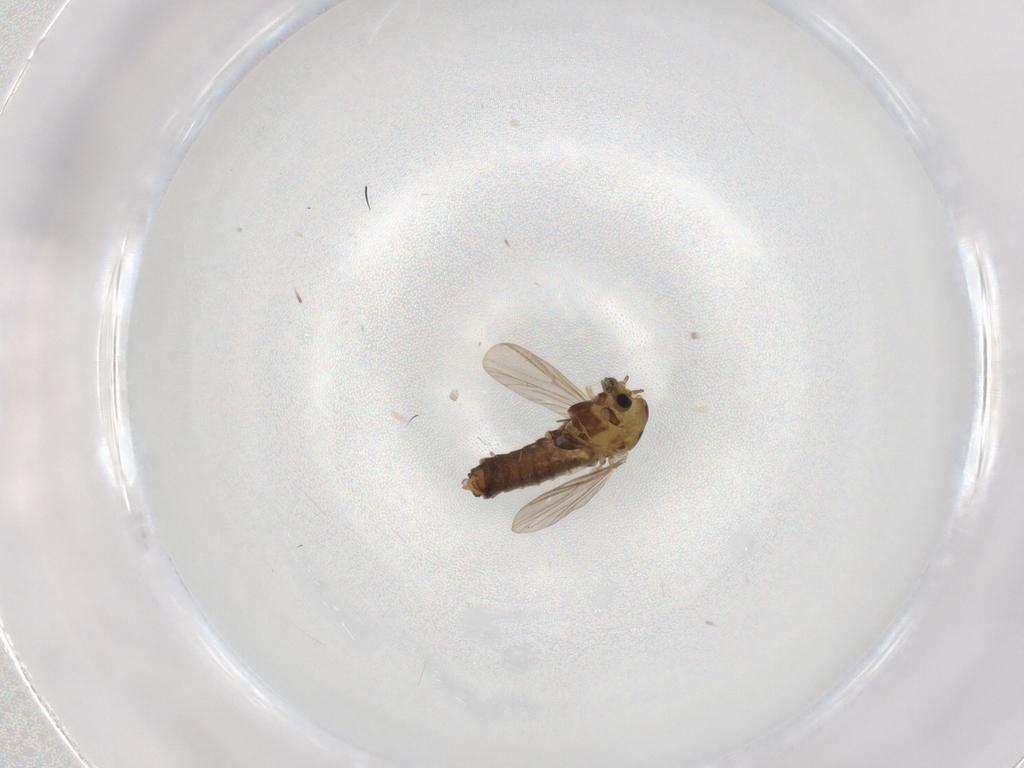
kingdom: Animalia
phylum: Arthropoda
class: Insecta
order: Diptera
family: Chironomidae
